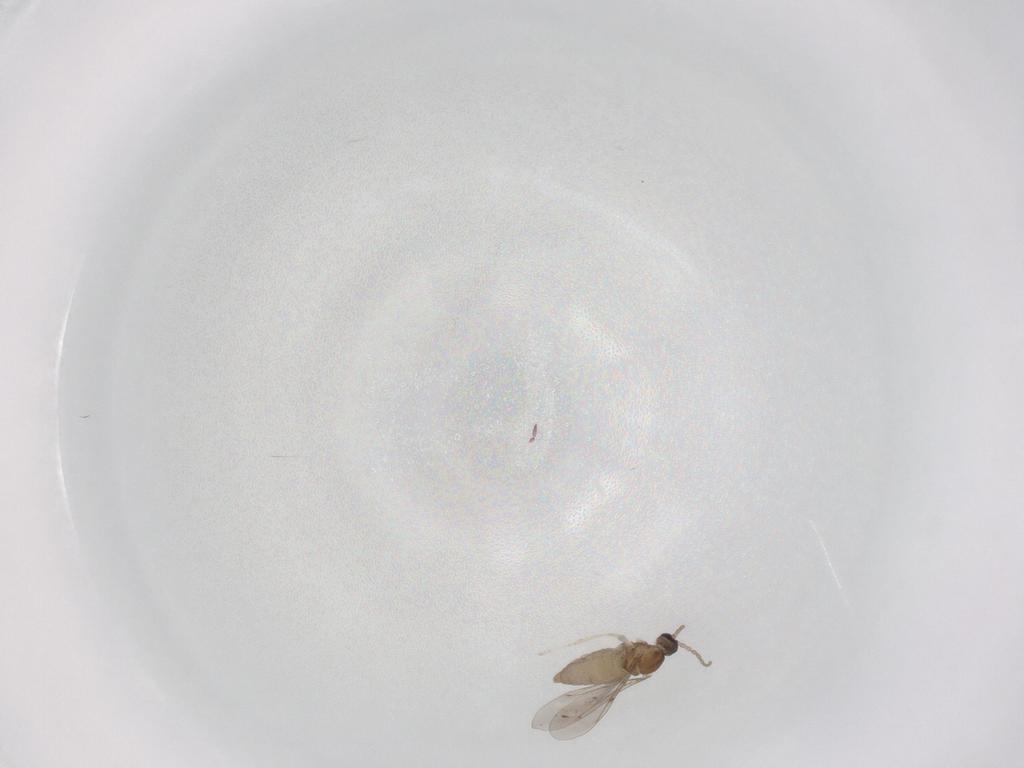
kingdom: Animalia
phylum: Arthropoda
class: Insecta
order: Diptera
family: Cecidomyiidae
